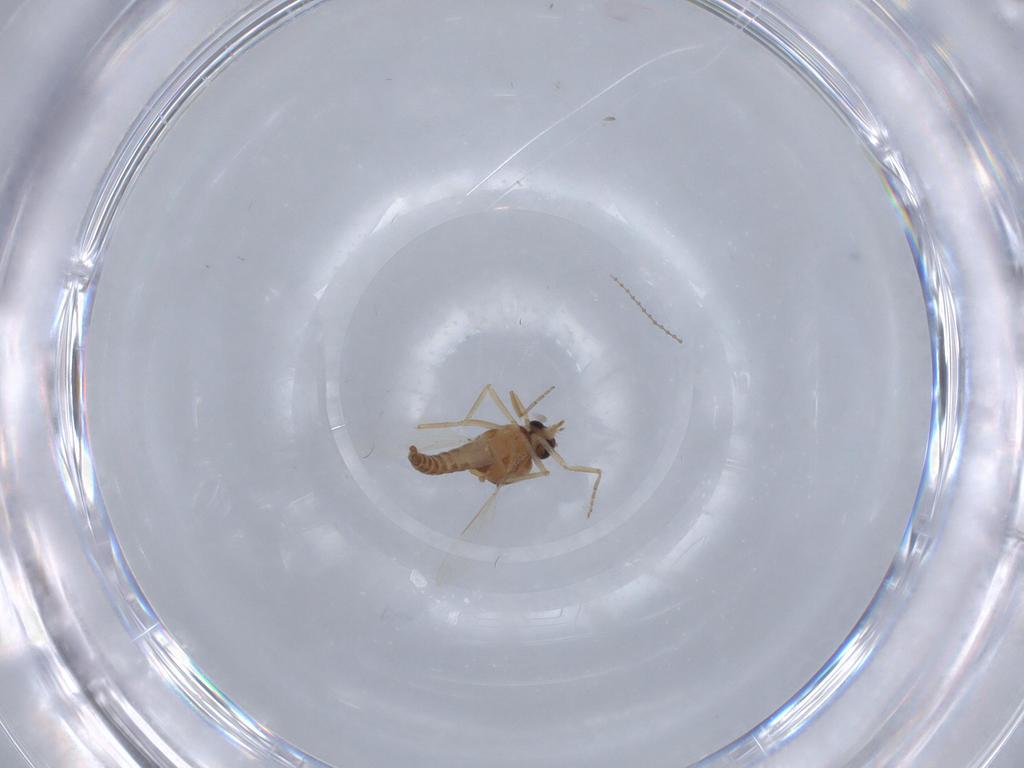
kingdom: Animalia
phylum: Arthropoda
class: Insecta
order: Diptera
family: Ceratopogonidae
